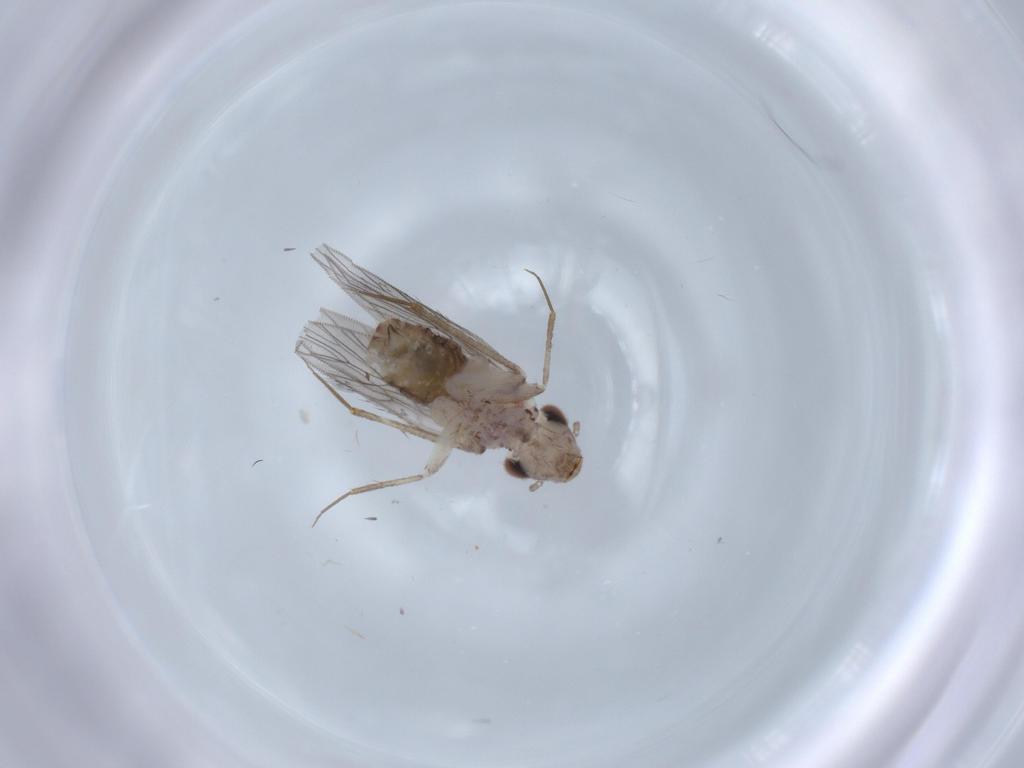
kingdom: Animalia
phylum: Arthropoda
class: Insecta
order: Psocodea
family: Lepidopsocidae
